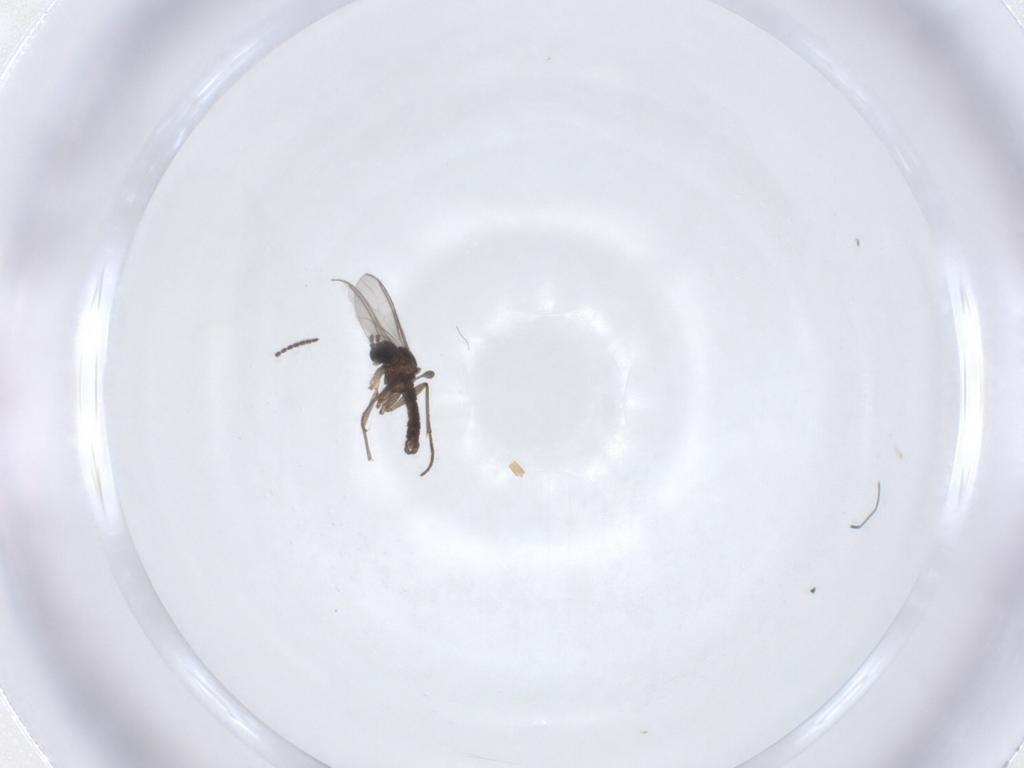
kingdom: Animalia
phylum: Arthropoda
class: Insecta
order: Diptera
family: Sciaridae
